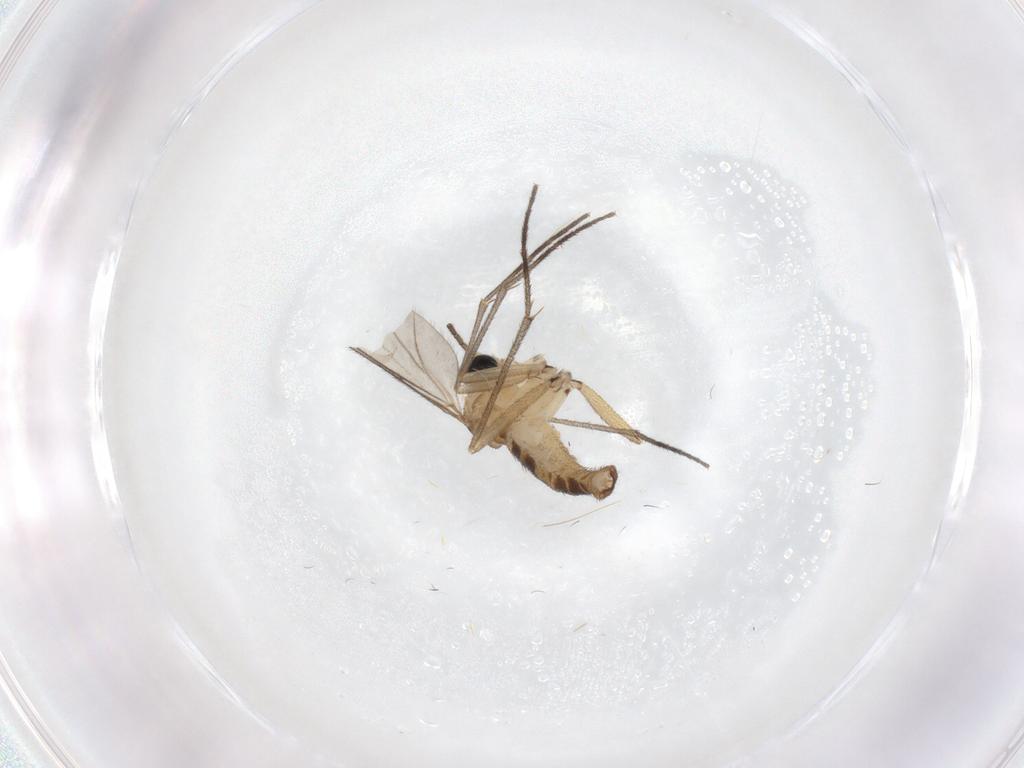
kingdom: Animalia
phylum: Arthropoda
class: Insecta
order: Diptera
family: Sciaridae
